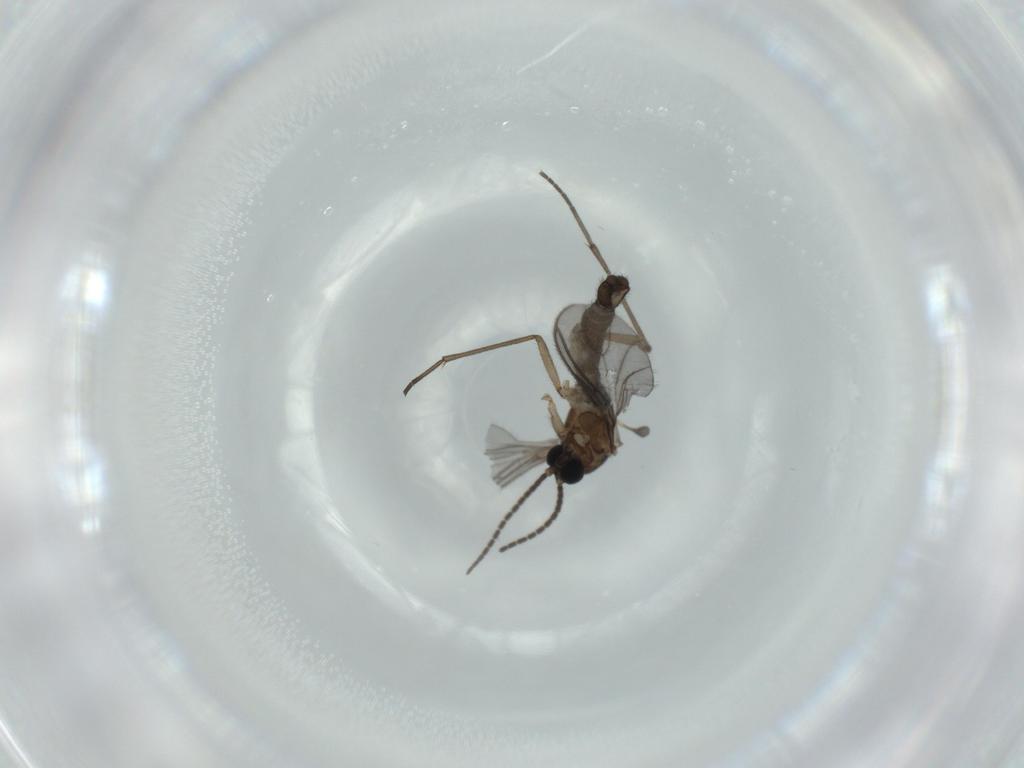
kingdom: Animalia
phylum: Arthropoda
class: Insecta
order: Diptera
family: Sciaridae
